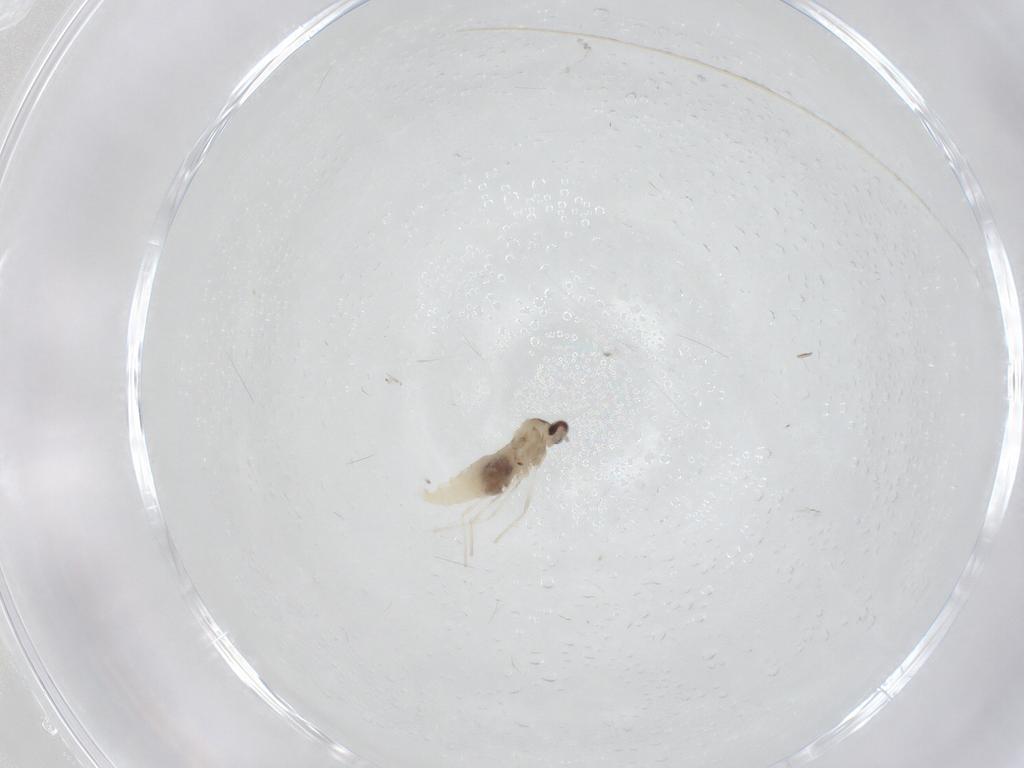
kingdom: Animalia
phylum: Arthropoda
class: Insecta
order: Diptera
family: Cecidomyiidae
